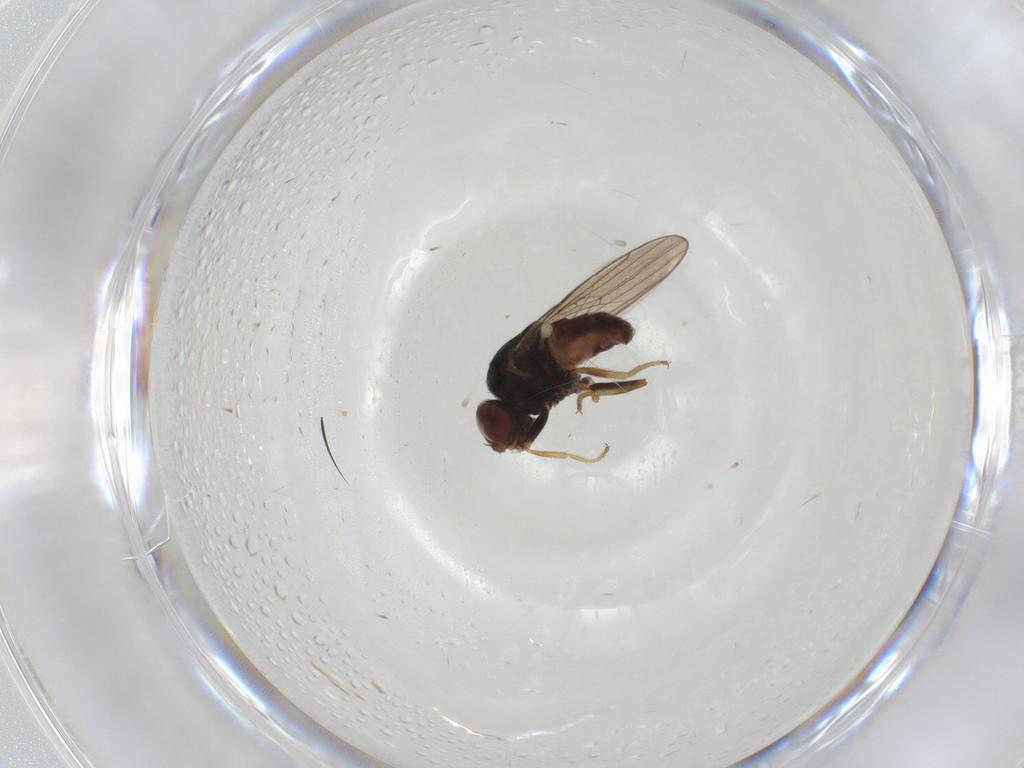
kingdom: Animalia
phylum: Arthropoda
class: Insecta
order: Diptera
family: Chloropidae
